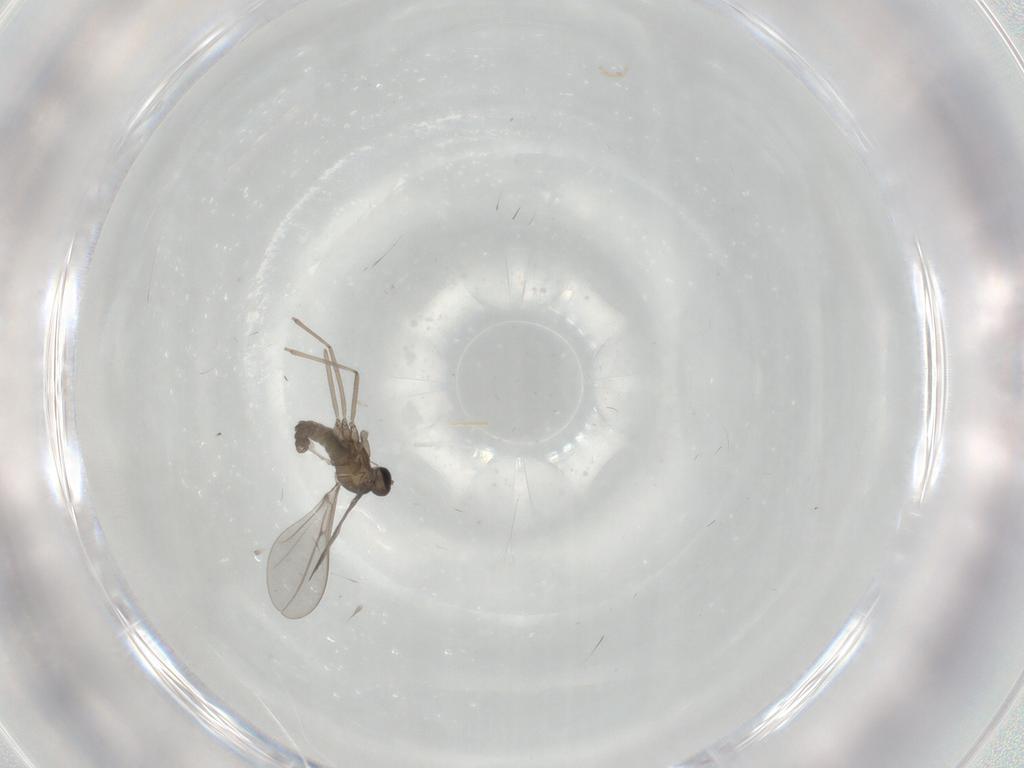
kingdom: Animalia
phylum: Arthropoda
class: Insecta
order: Diptera
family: Cecidomyiidae
